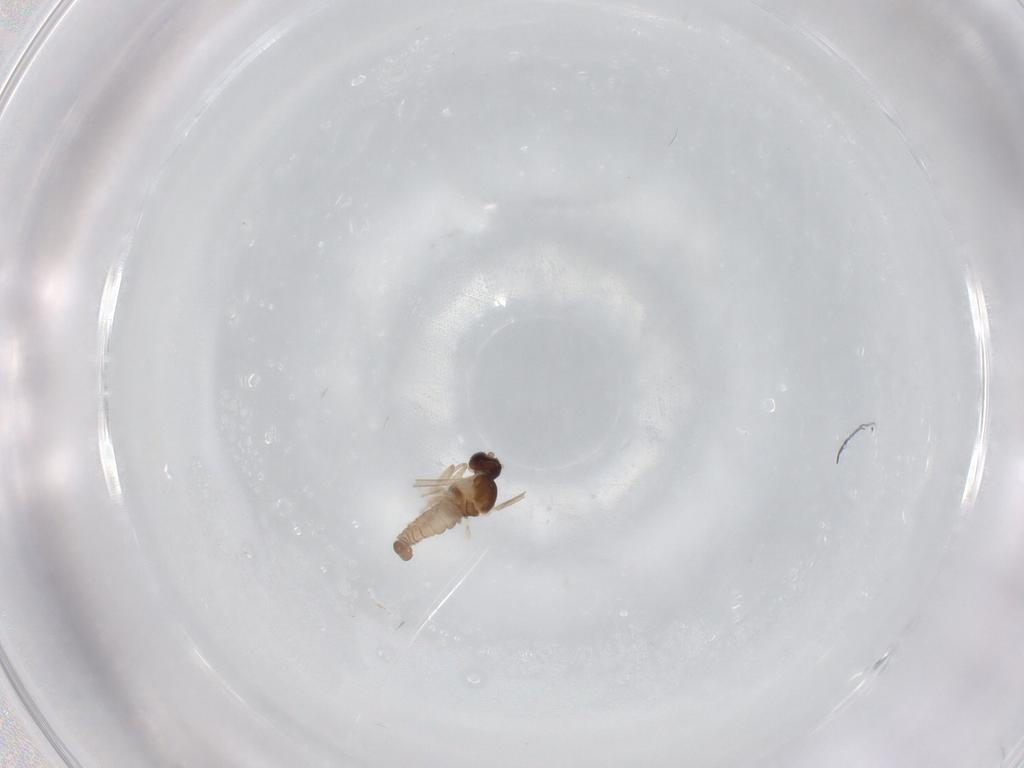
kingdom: Animalia
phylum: Arthropoda
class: Insecta
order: Diptera
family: Cecidomyiidae
